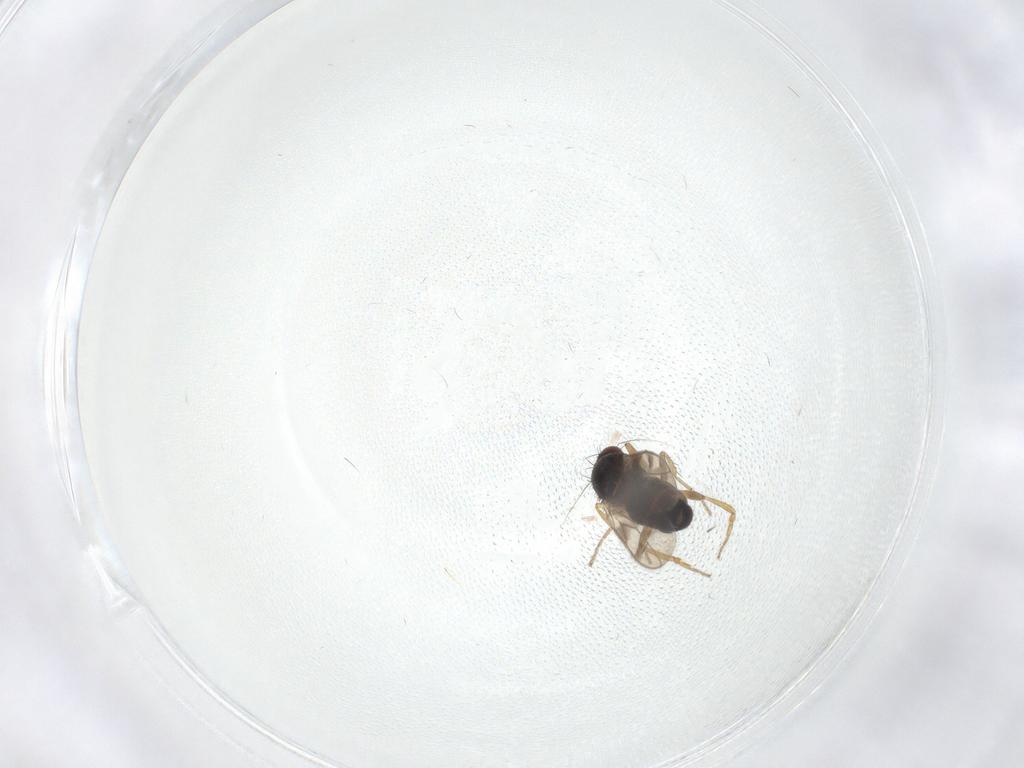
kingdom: Animalia
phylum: Arthropoda
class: Insecta
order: Diptera
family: Sphaeroceridae
